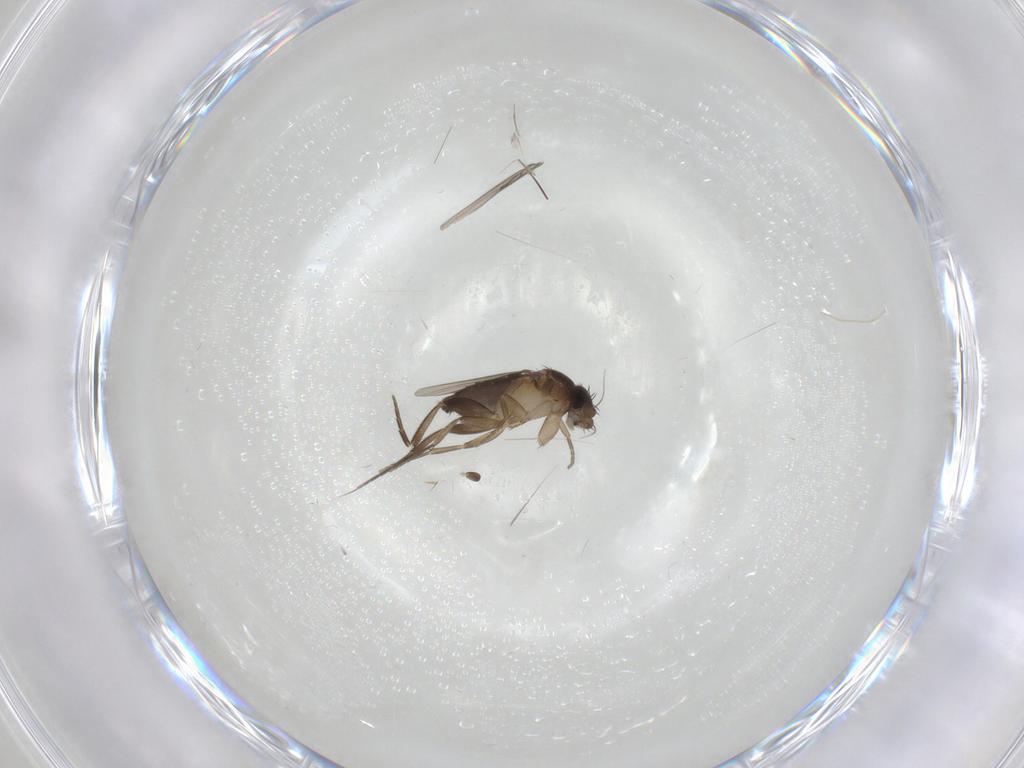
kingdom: Animalia
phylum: Arthropoda
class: Insecta
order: Diptera
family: Phoridae
